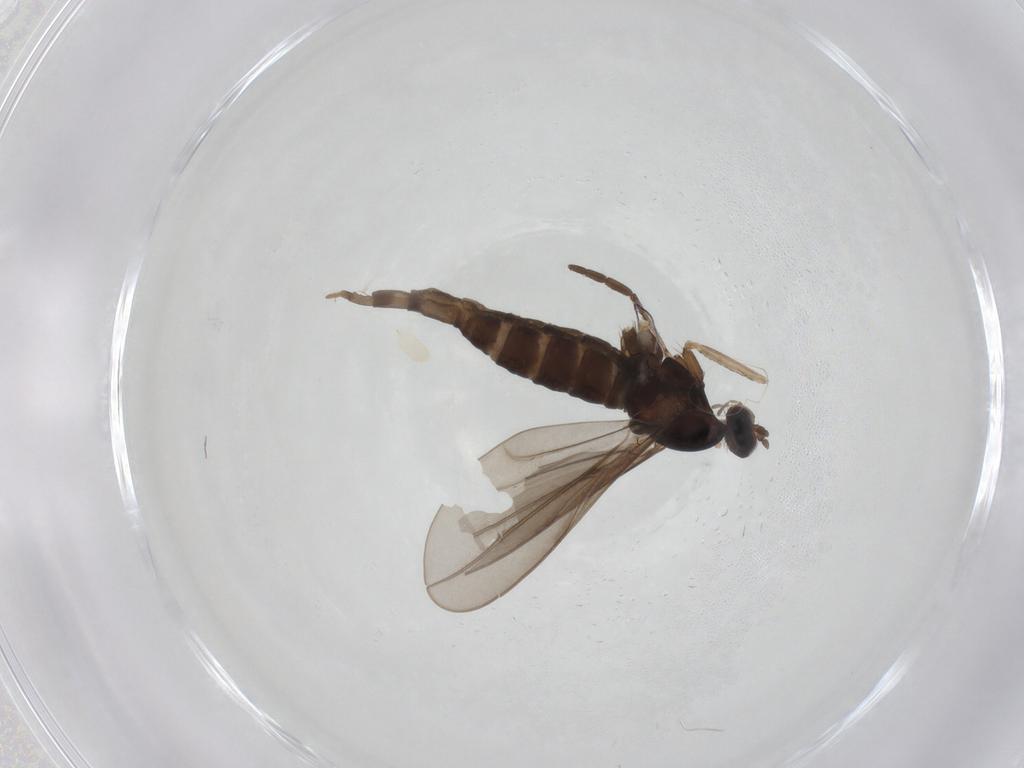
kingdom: Animalia
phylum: Arthropoda
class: Insecta
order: Diptera
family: Cecidomyiidae
